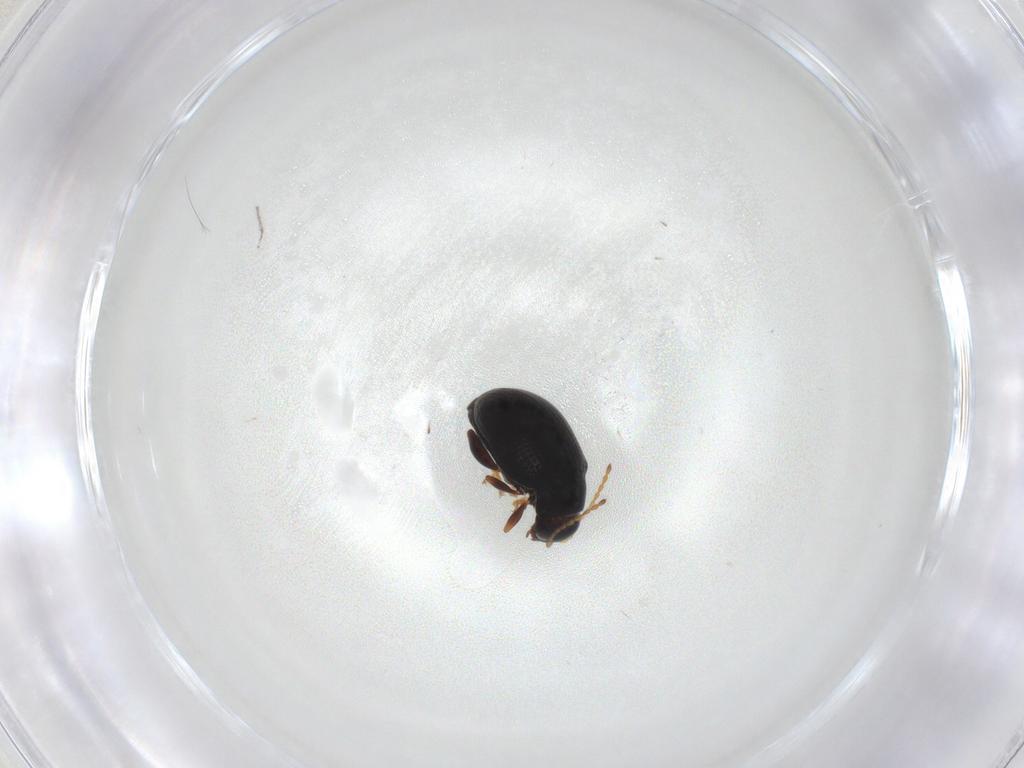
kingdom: Animalia
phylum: Arthropoda
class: Insecta
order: Coleoptera
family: Chrysomelidae
